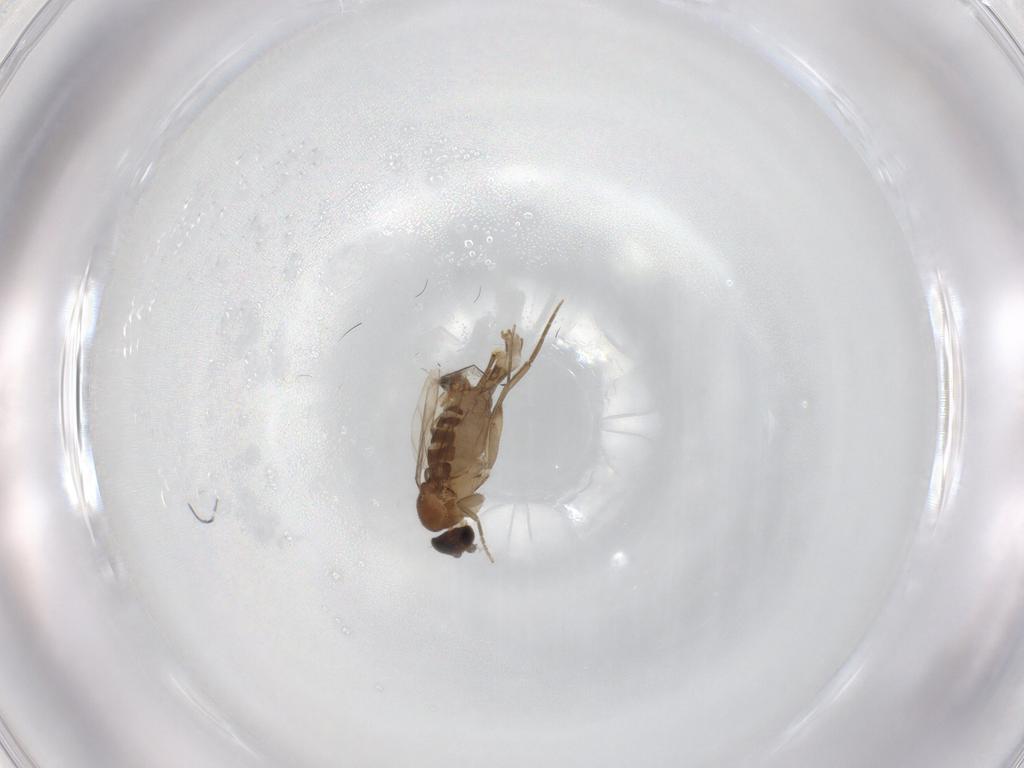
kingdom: Animalia
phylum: Arthropoda
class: Insecta
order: Diptera
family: Phoridae
